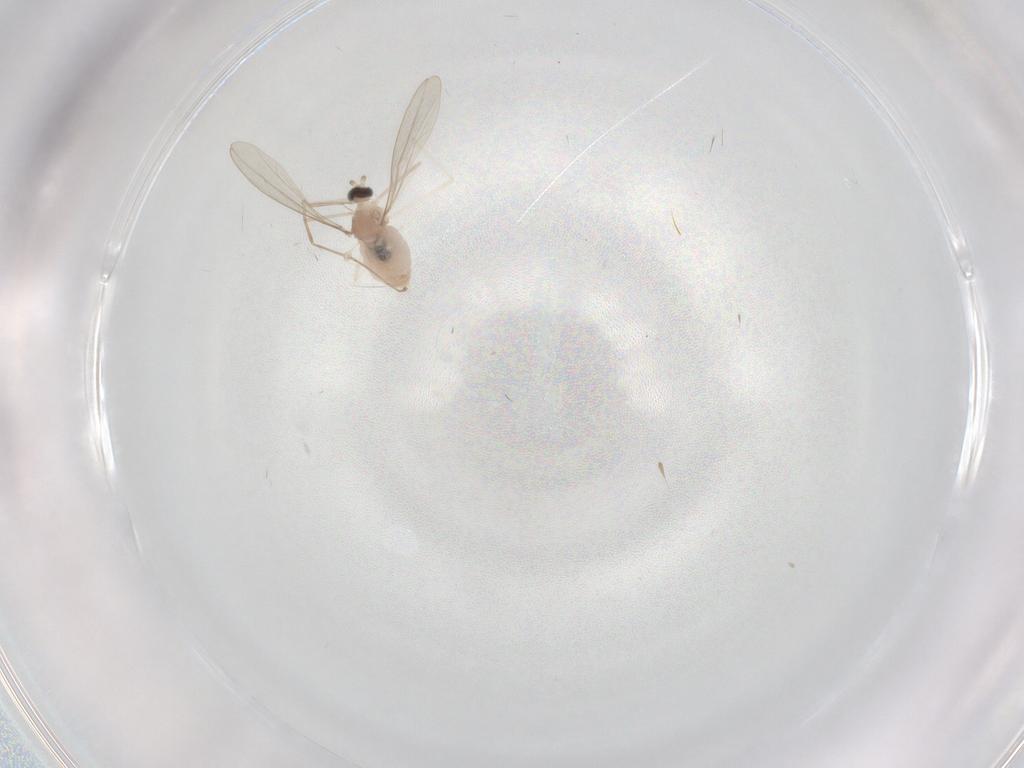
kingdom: Animalia
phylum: Arthropoda
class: Insecta
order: Diptera
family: Cecidomyiidae
